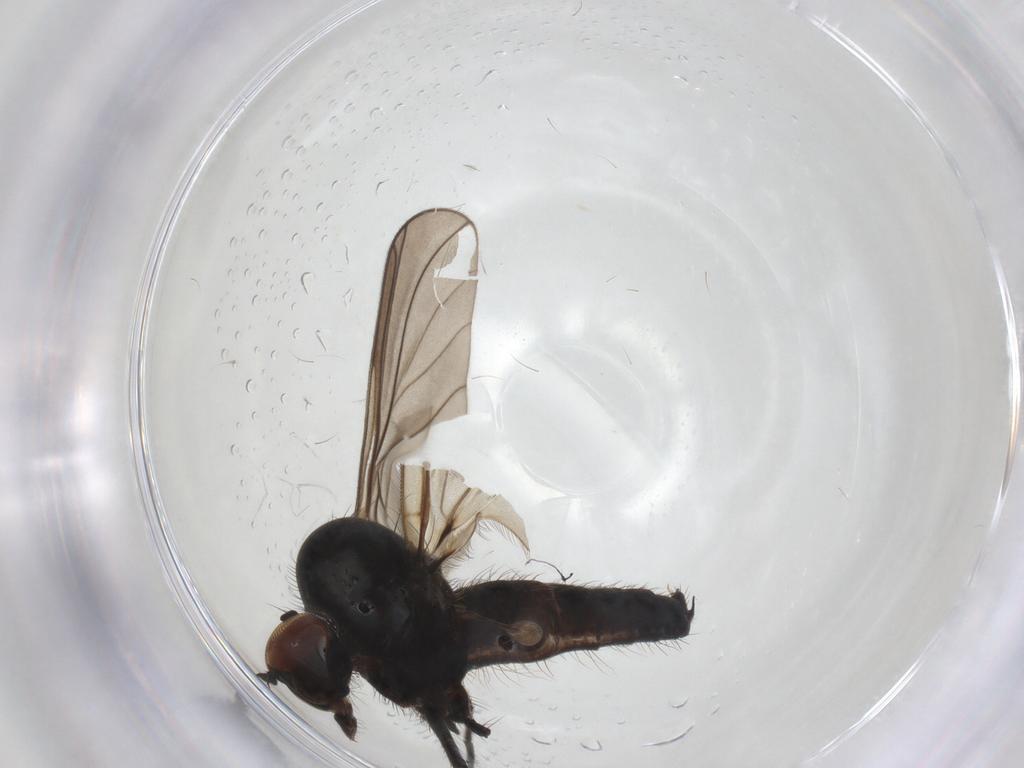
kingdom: Animalia
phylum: Arthropoda
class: Insecta
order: Diptera
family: Hybotidae
